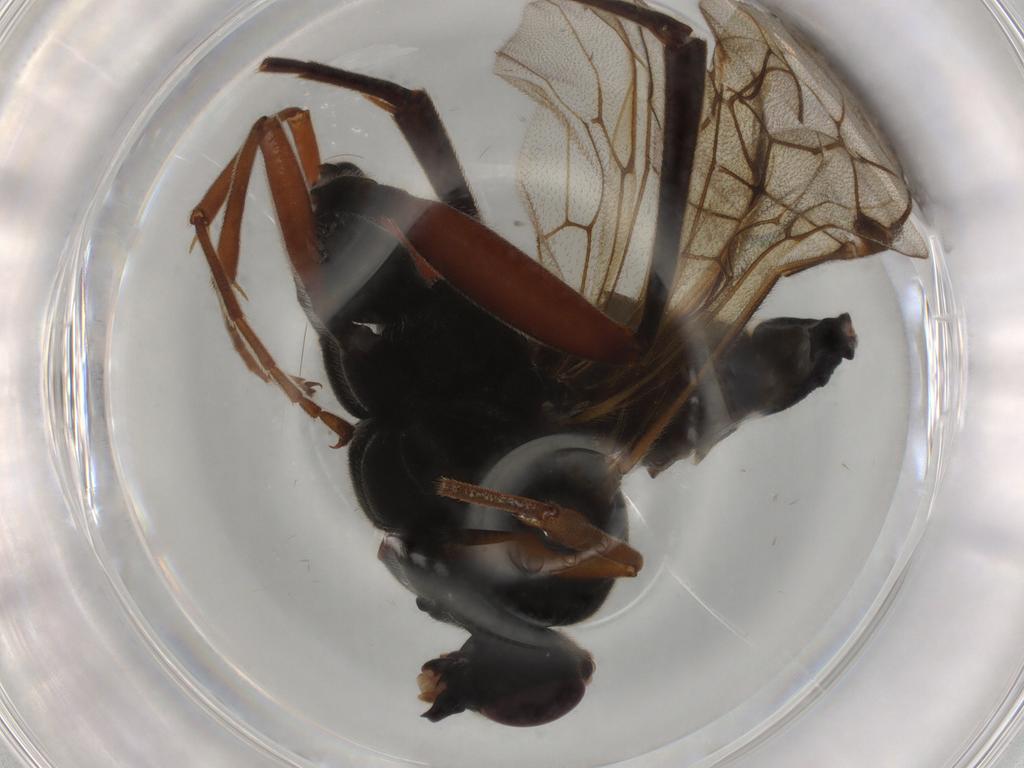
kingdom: Animalia
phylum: Arthropoda
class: Insecta
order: Hymenoptera
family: Ichneumonidae
